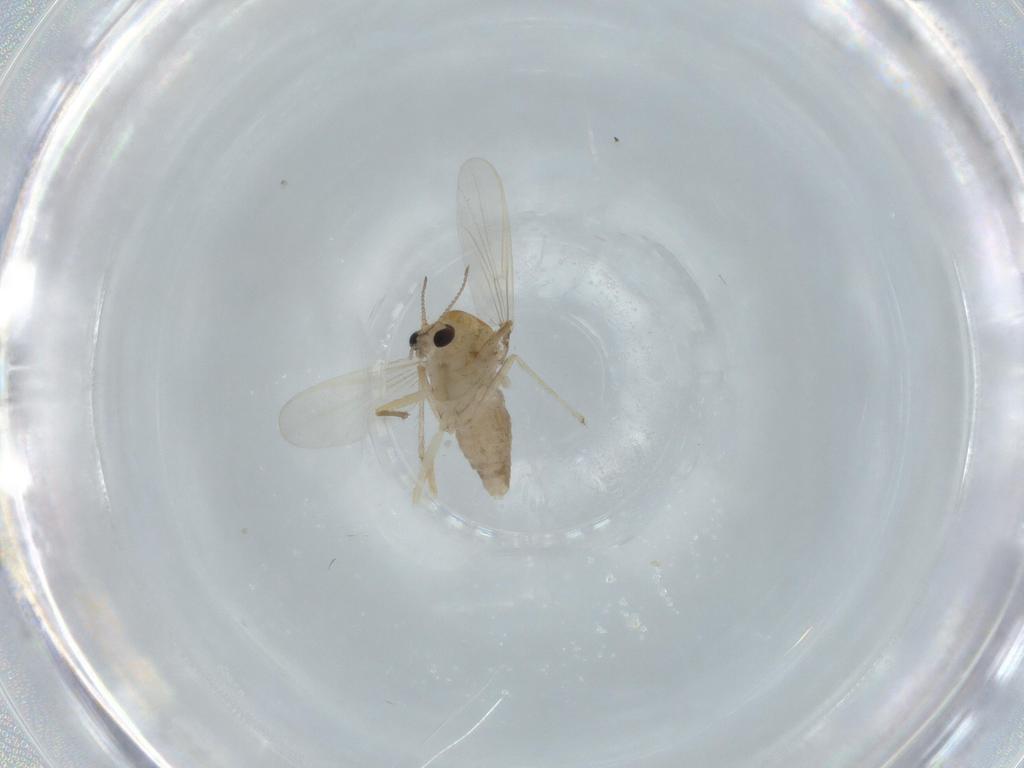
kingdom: Animalia
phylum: Arthropoda
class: Insecta
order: Diptera
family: Chironomidae
